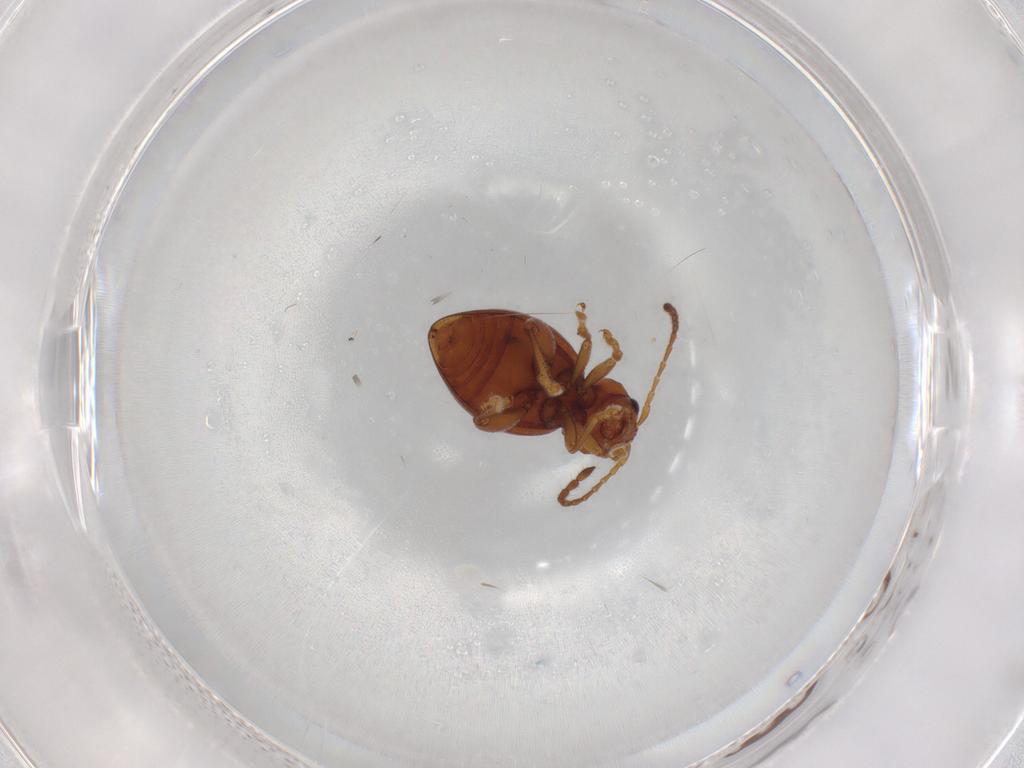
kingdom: Animalia
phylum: Arthropoda
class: Insecta
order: Coleoptera
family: Chrysomelidae
